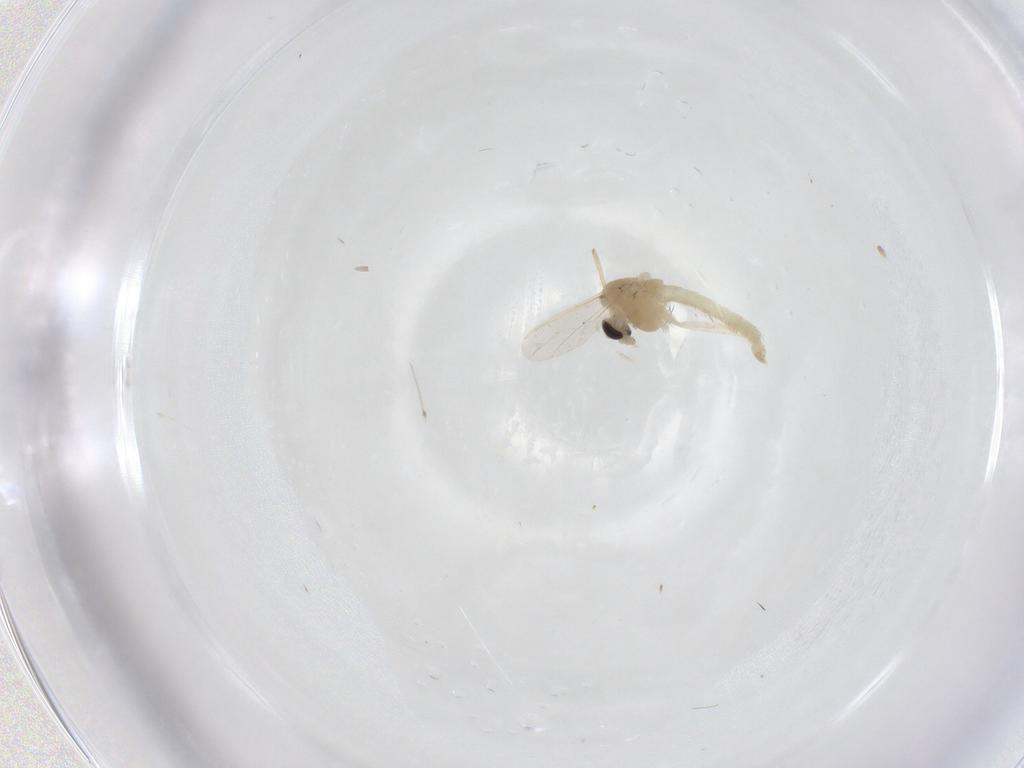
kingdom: Animalia
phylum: Arthropoda
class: Insecta
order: Diptera
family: Chironomidae
